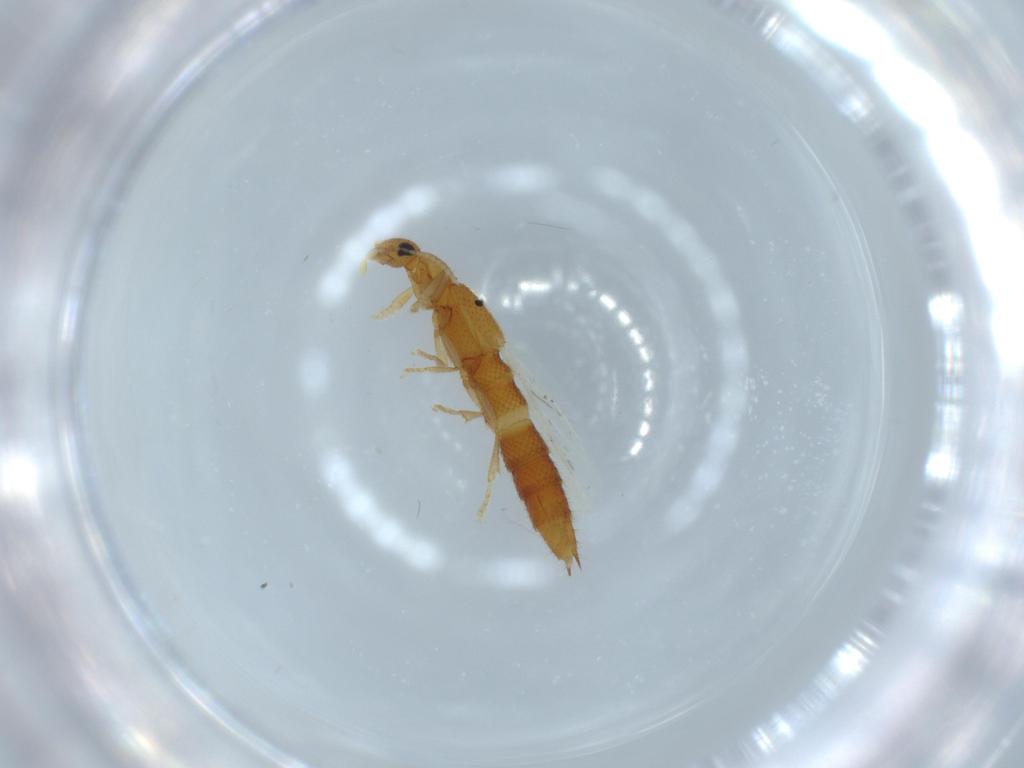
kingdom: Animalia
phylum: Arthropoda
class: Insecta
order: Coleoptera
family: Staphylinidae
